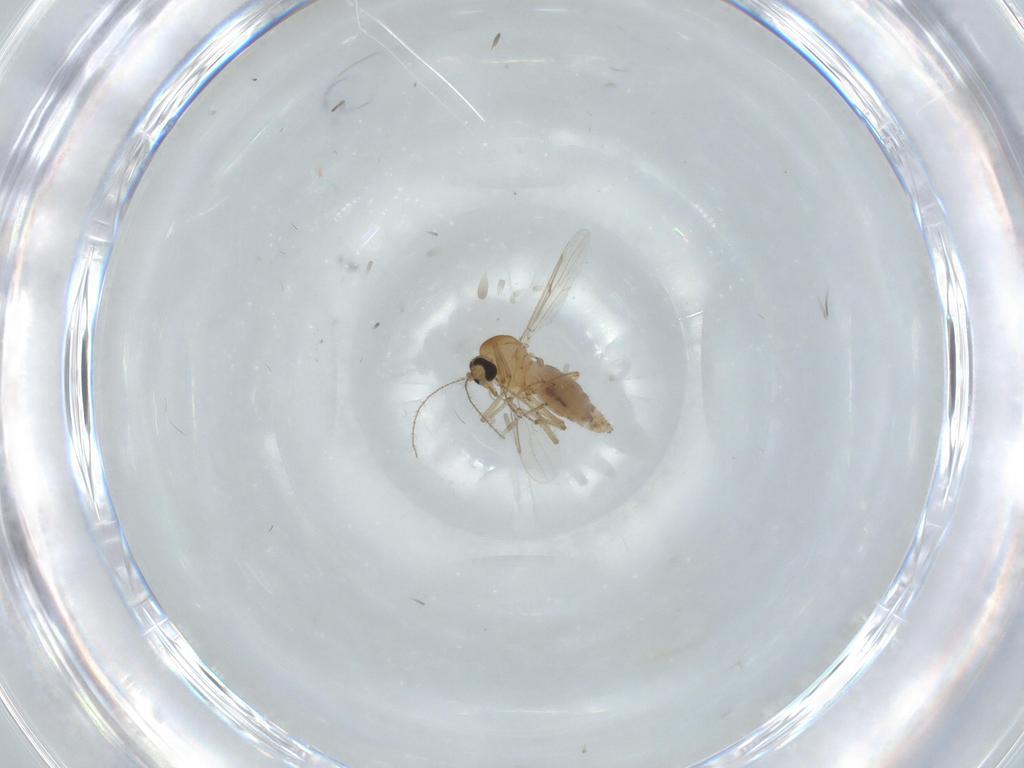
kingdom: Animalia
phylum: Arthropoda
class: Insecta
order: Diptera
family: Ceratopogonidae
